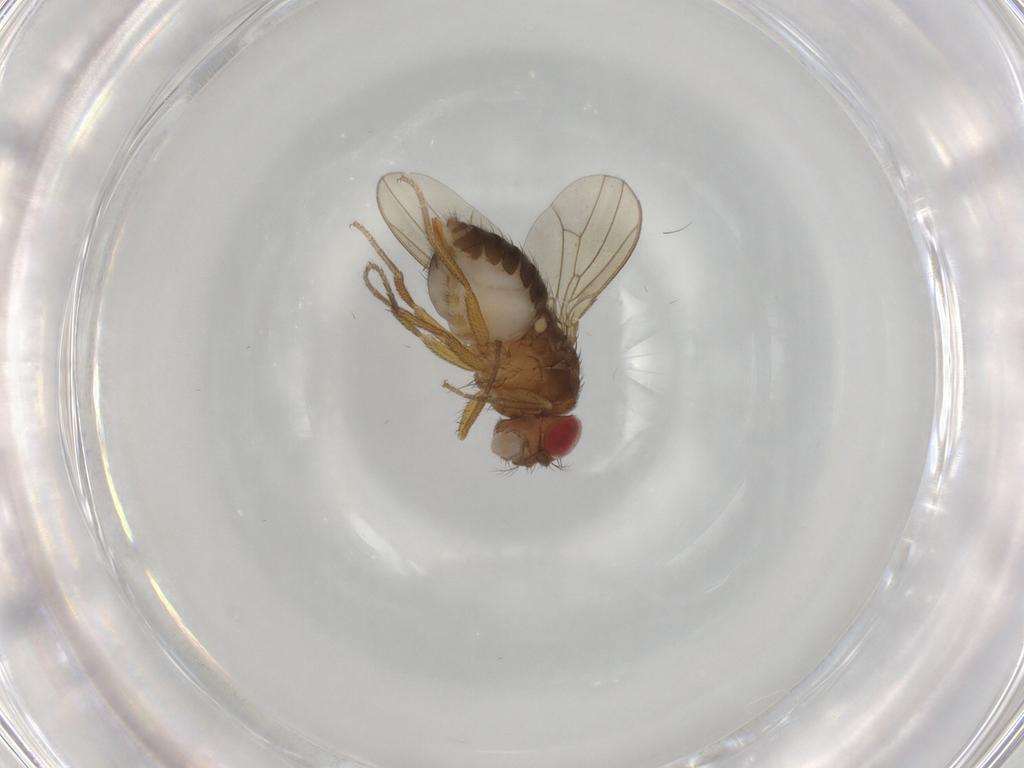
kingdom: Animalia
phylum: Arthropoda
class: Insecta
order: Diptera
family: Drosophilidae
